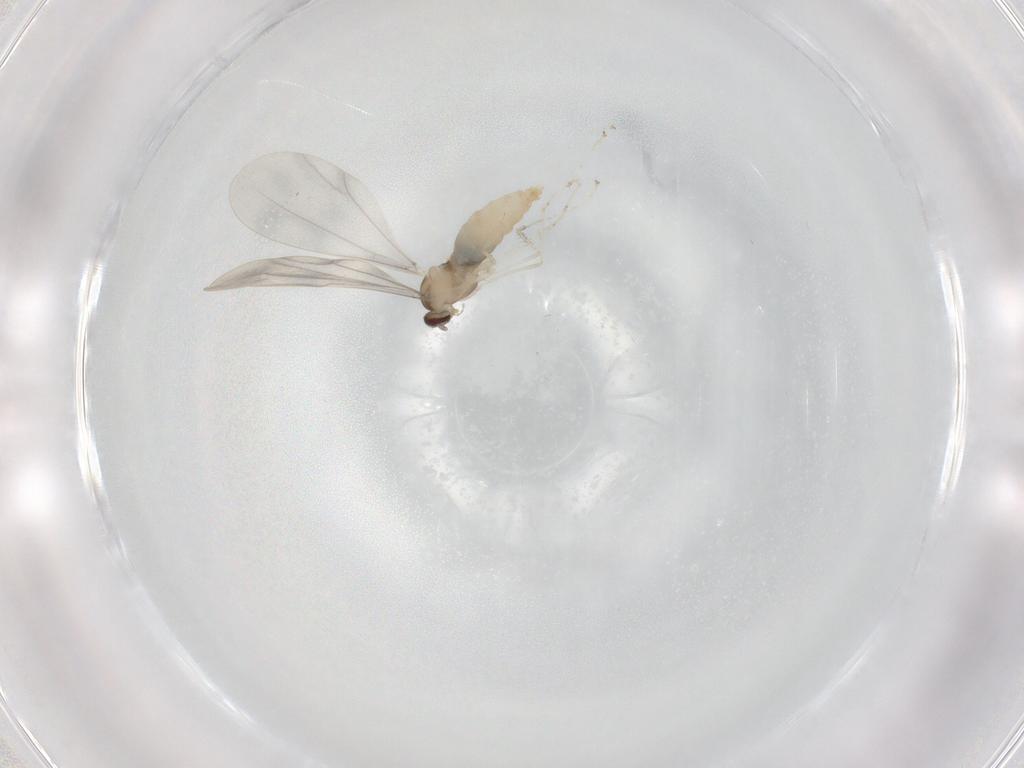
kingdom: Animalia
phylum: Arthropoda
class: Insecta
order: Diptera
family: Cecidomyiidae
